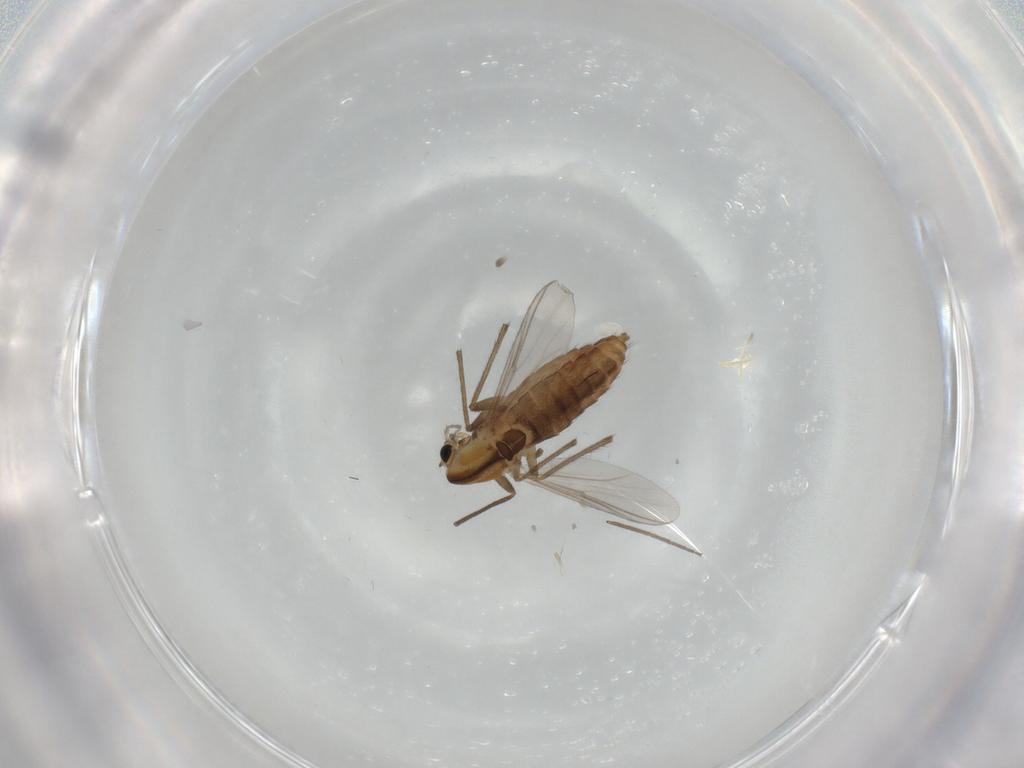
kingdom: Animalia
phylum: Arthropoda
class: Insecta
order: Diptera
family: Chironomidae
